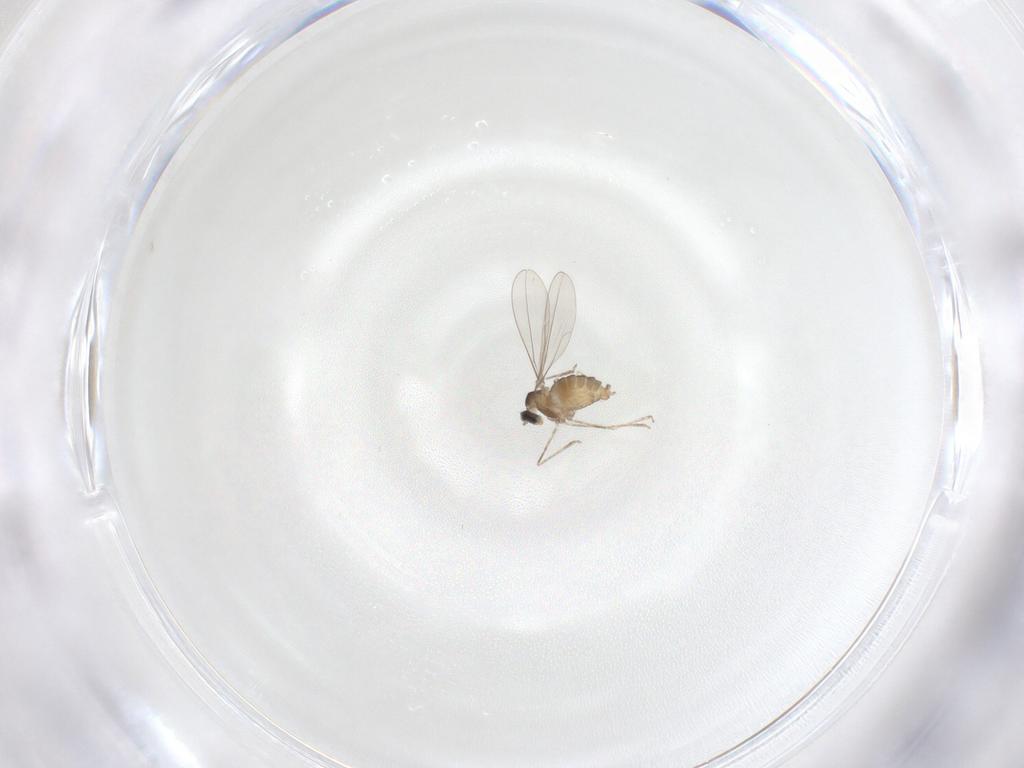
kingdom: Animalia
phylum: Arthropoda
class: Insecta
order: Diptera
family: Cecidomyiidae
